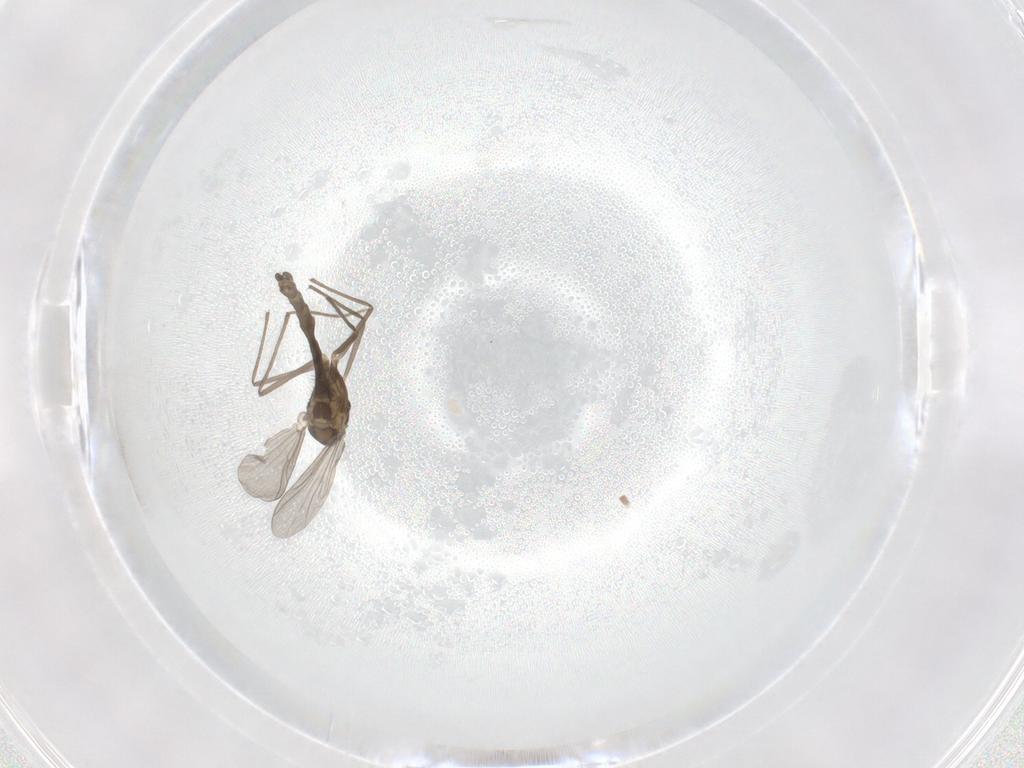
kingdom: Animalia
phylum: Arthropoda
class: Insecta
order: Diptera
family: Chironomidae
